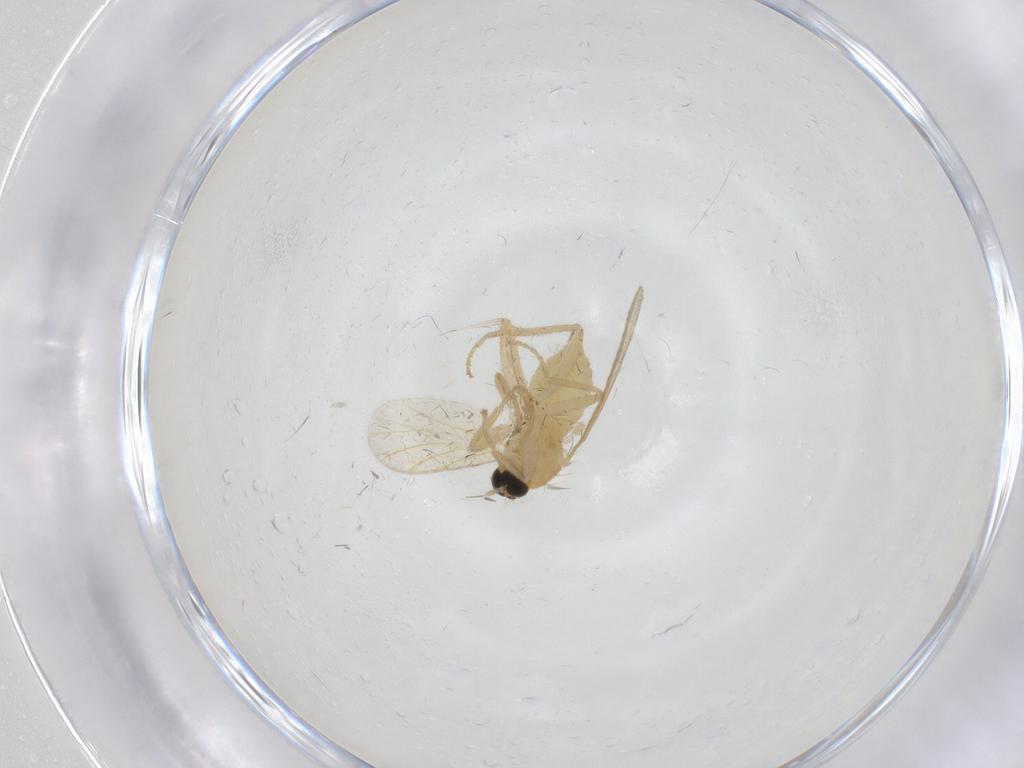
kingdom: Animalia
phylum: Arthropoda
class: Insecta
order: Diptera
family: Hybotidae
